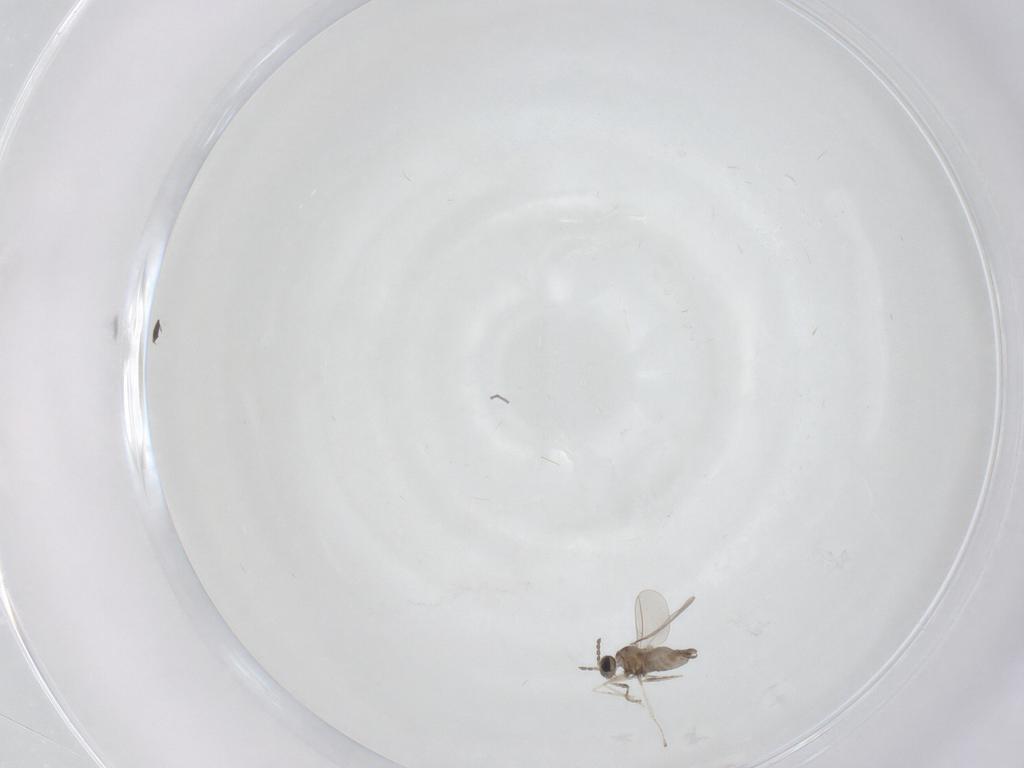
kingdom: Animalia
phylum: Arthropoda
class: Insecta
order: Diptera
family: Cecidomyiidae
